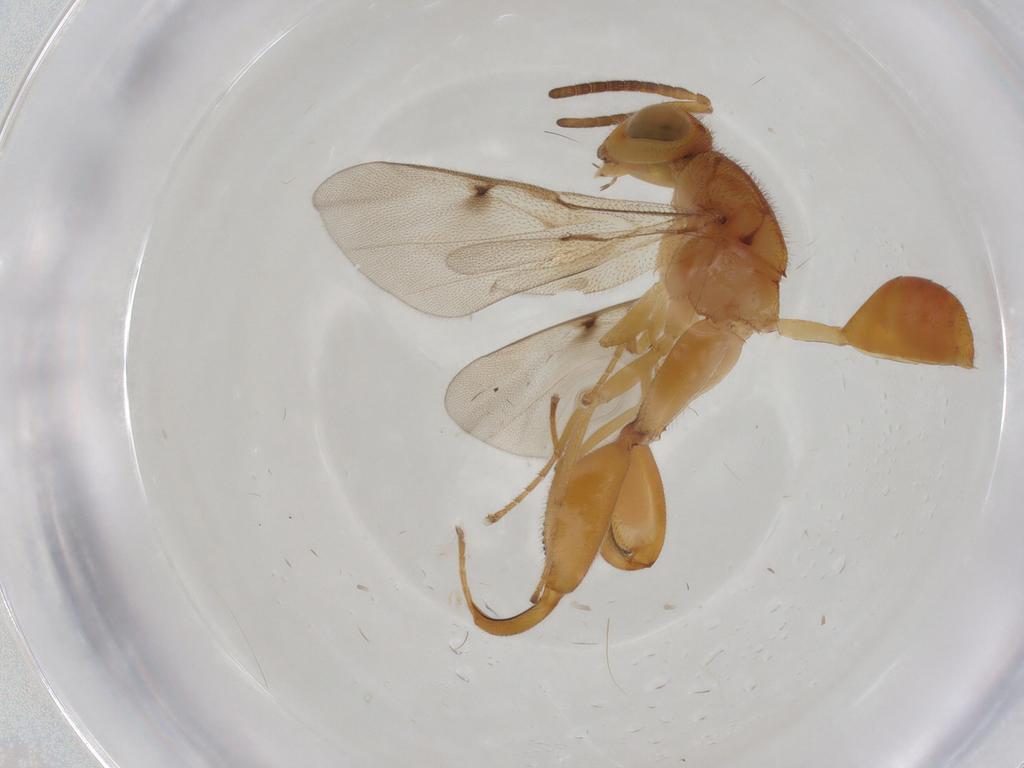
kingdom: Animalia
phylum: Arthropoda
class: Insecta
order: Hymenoptera
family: Chalcididae
